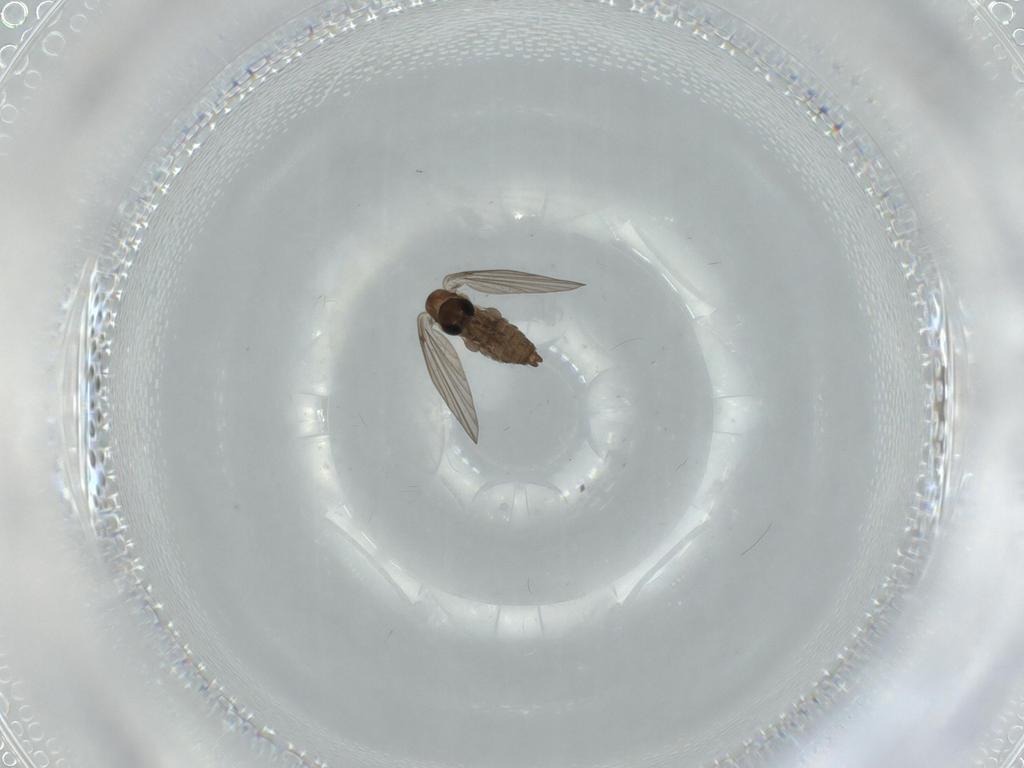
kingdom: Animalia
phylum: Arthropoda
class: Insecta
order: Diptera
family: Psychodidae
